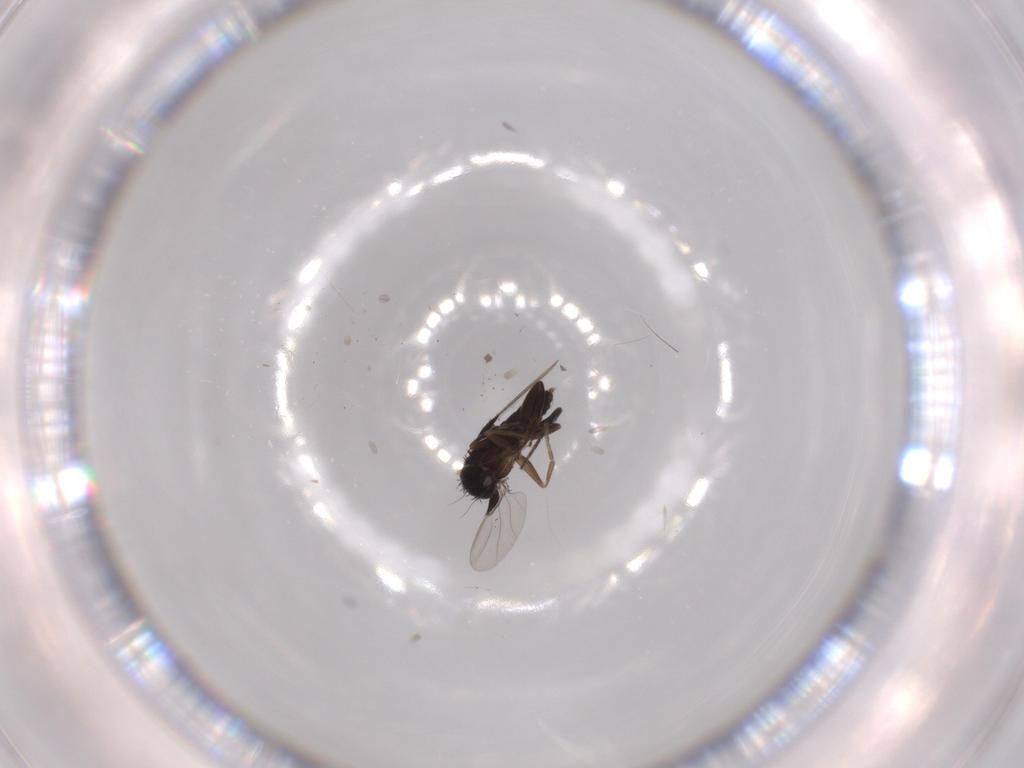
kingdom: Animalia
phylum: Arthropoda
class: Insecta
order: Diptera
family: Phoridae
